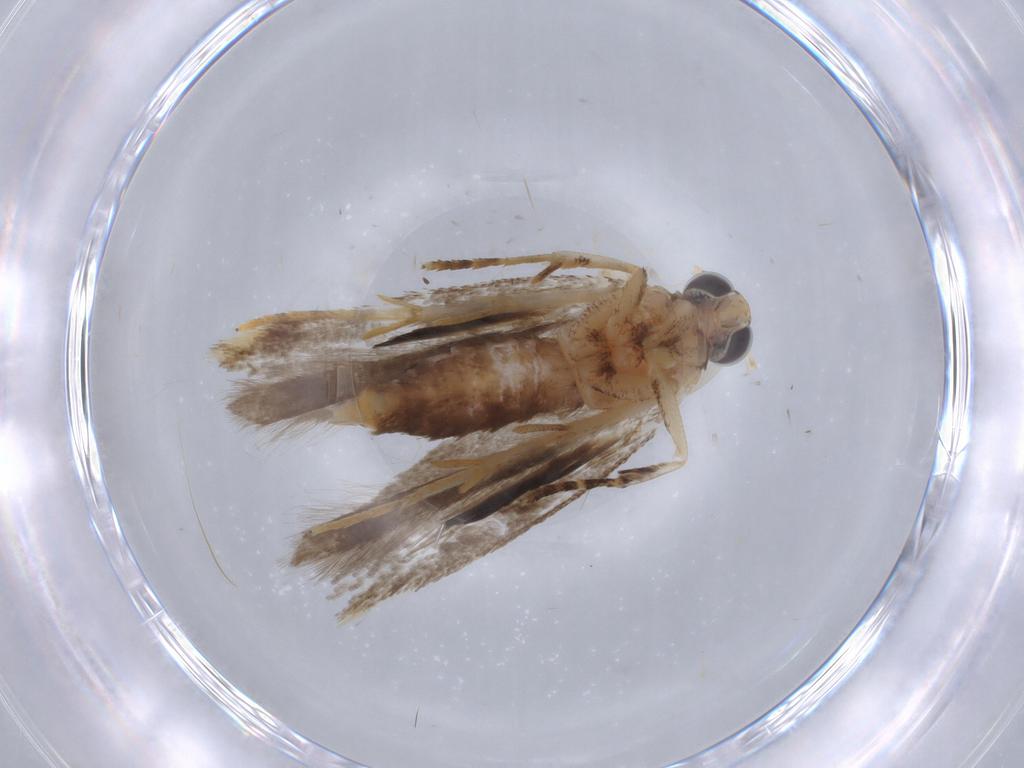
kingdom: Animalia
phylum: Arthropoda
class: Insecta
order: Lepidoptera
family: Gelechiidae
